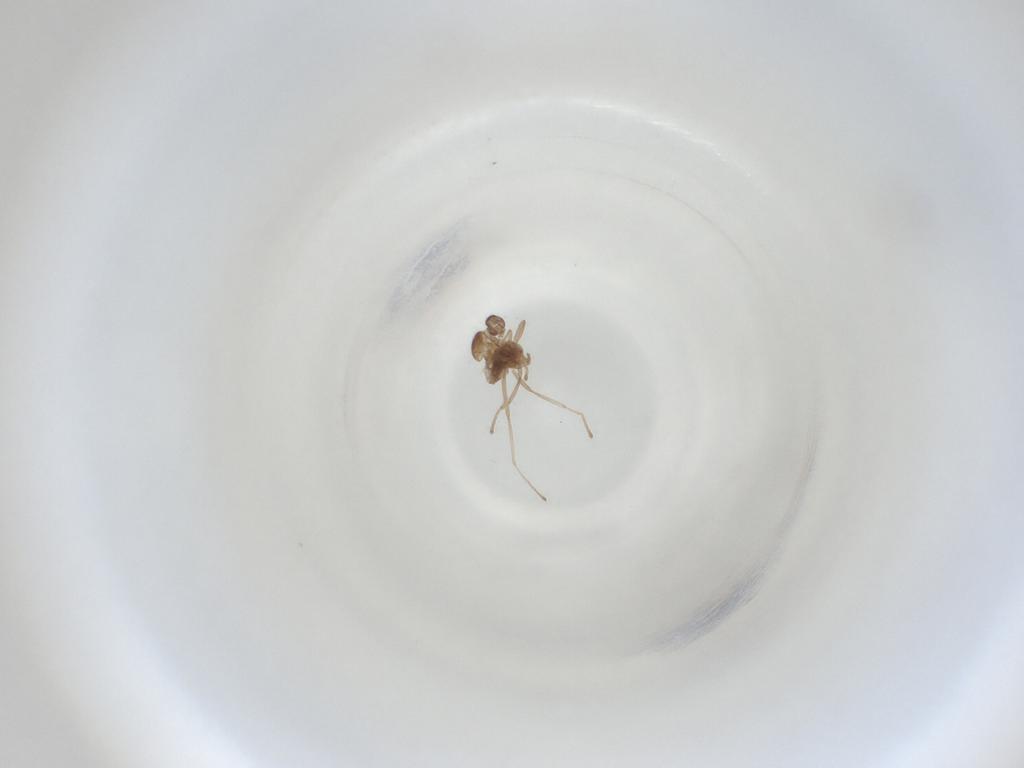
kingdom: Animalia
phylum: Arthropoda
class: Insecta
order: Diptera
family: Cecidomyiidae
